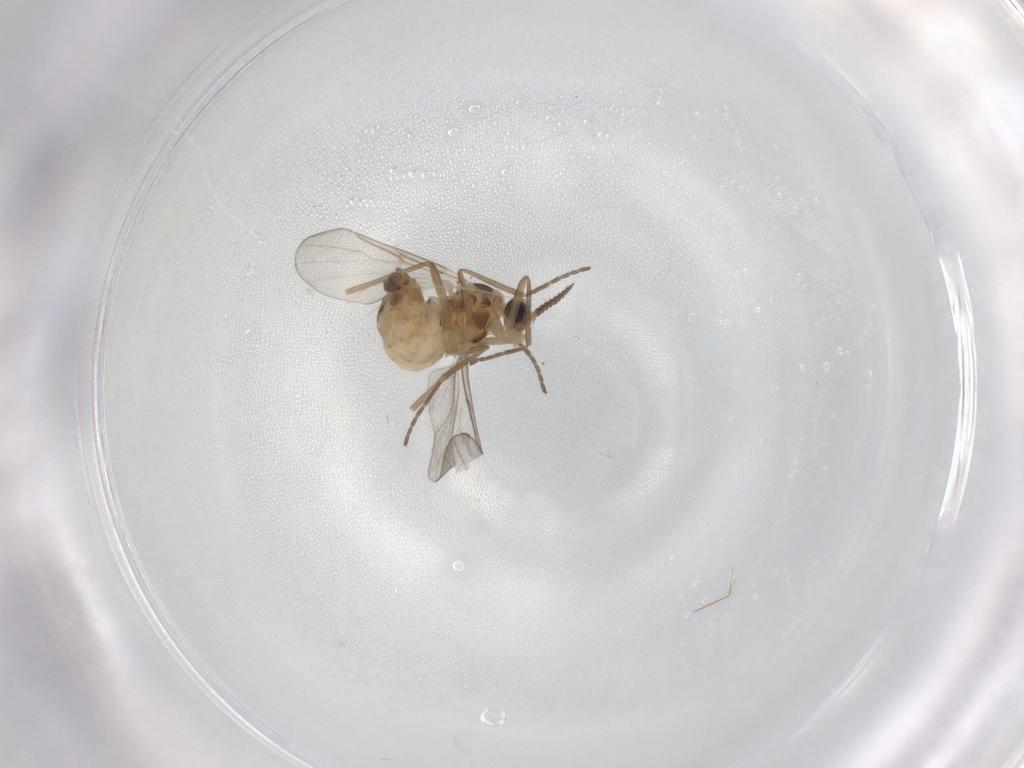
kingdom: Animalia
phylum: Arthropoda
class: Insecta
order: Diptera
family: Cecidomyiidae
